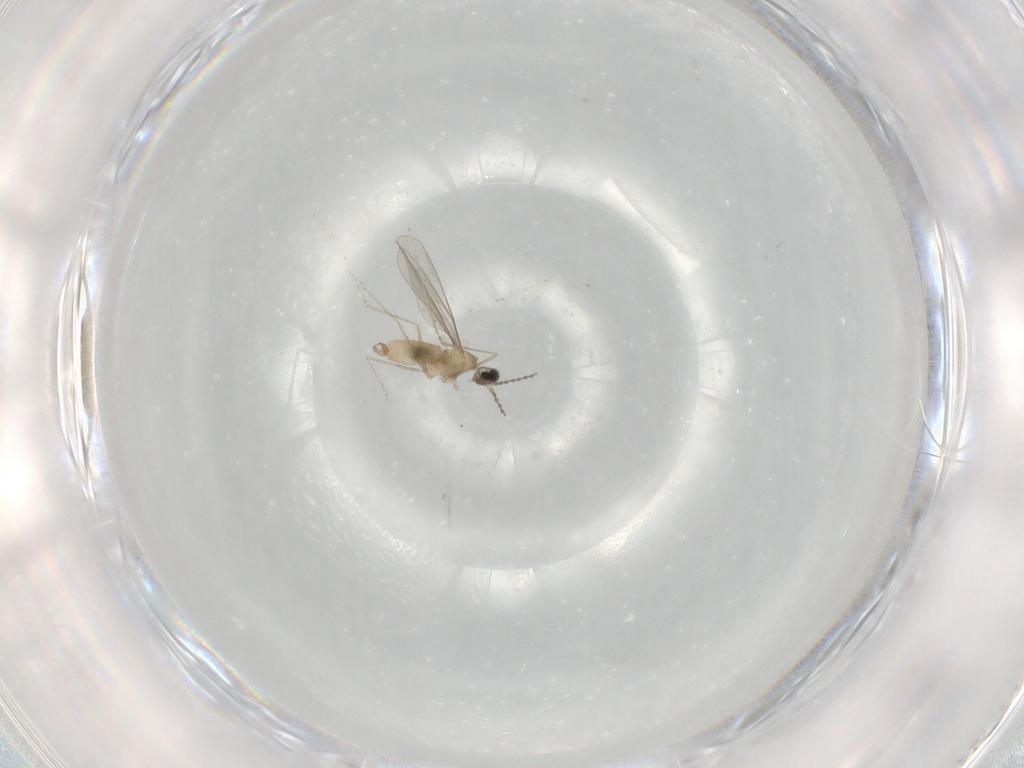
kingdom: Animalia
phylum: Arthropoda
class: Insecta
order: Diptera
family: Cecidomyiidae
